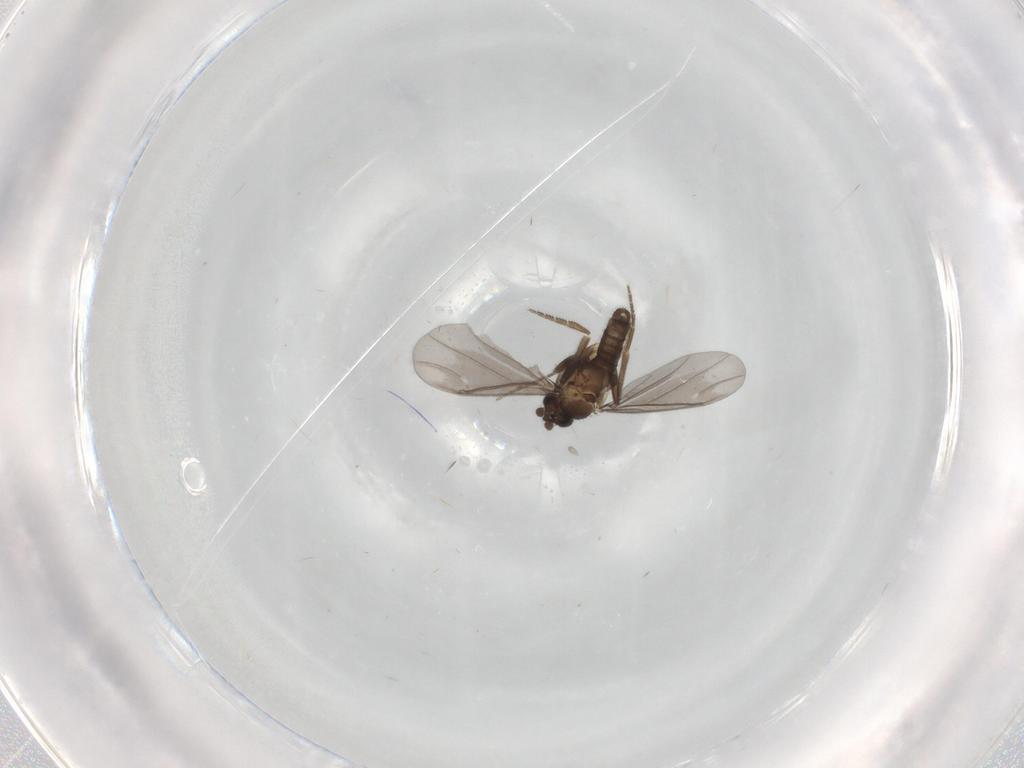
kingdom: Animalia
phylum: Arthropoda
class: Insecta
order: Diptera
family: Phoridae
